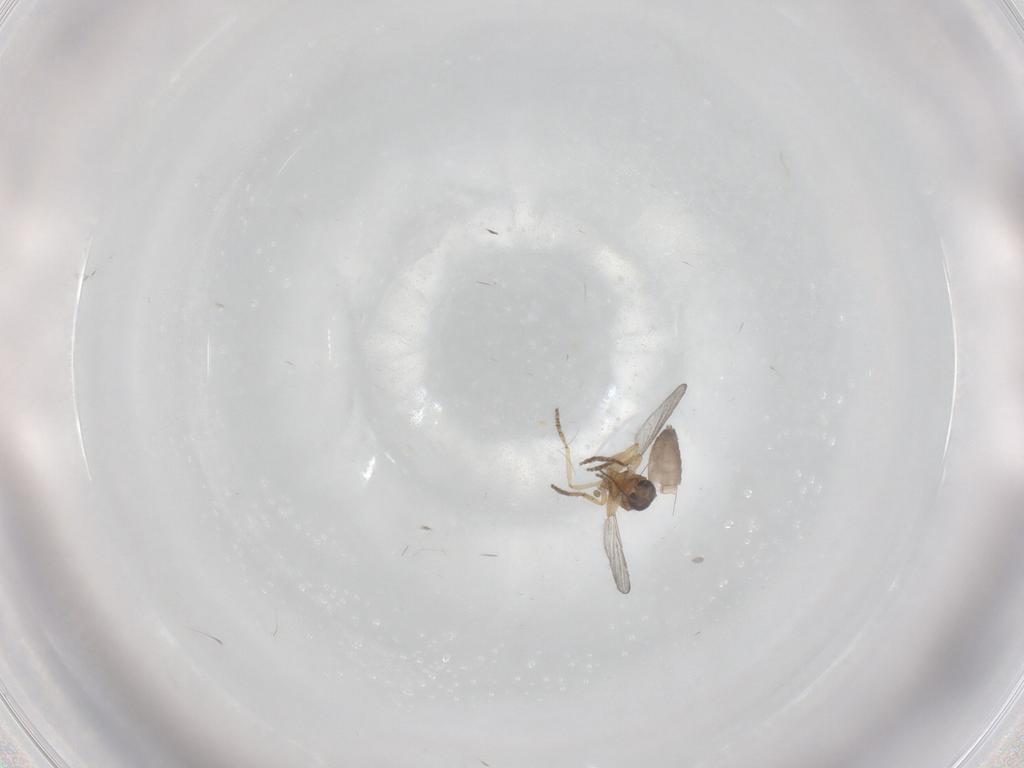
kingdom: Animalia
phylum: Arthropoda
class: Insecta
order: Diptera
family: Ceratopogonidae
